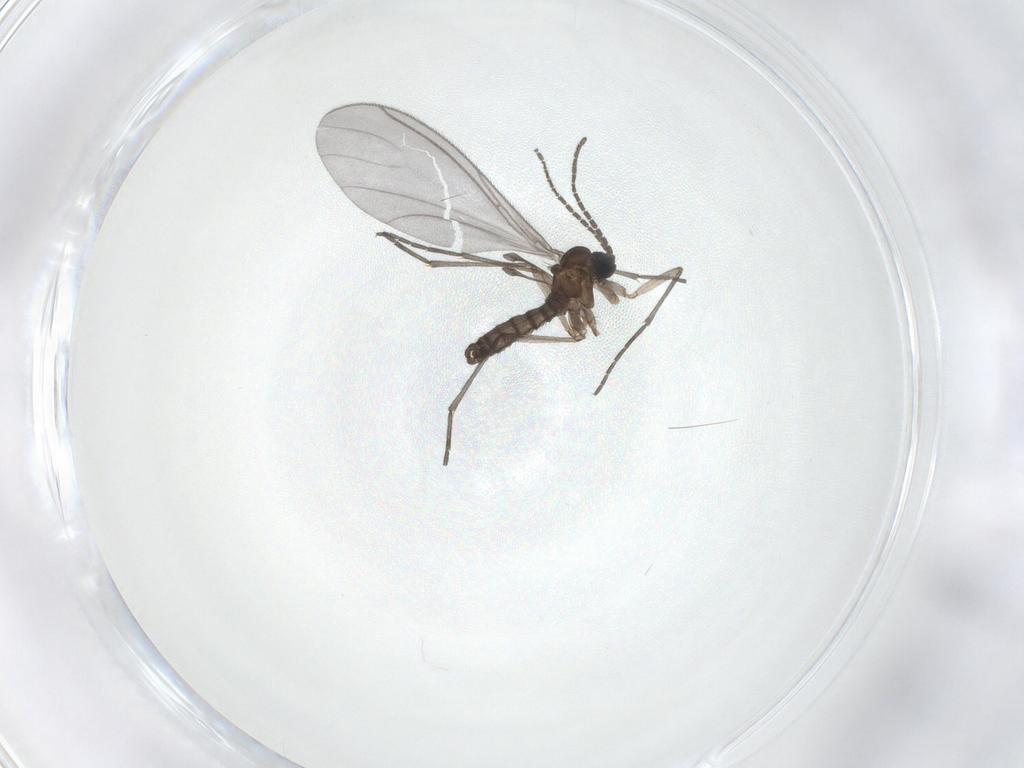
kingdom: Animalia
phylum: Arthropoda
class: Insecta
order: Diptera
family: Sciaridae
